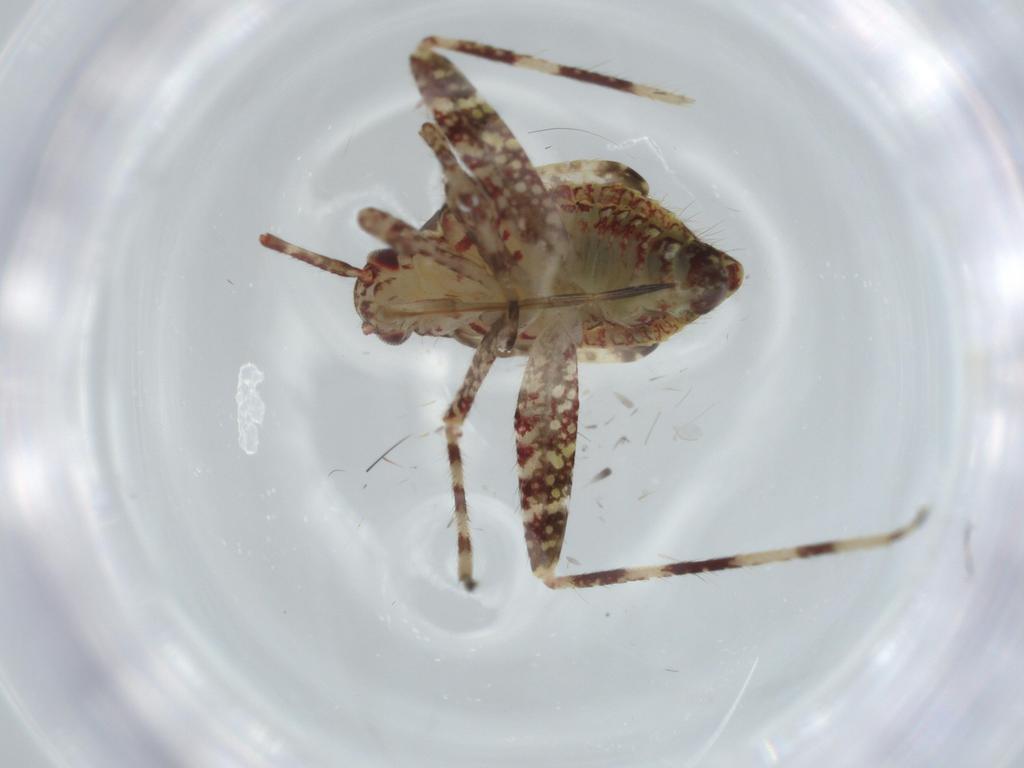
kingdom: Animalia
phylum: Arthropoda
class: Insecta
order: Hemiptera
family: Miridae
